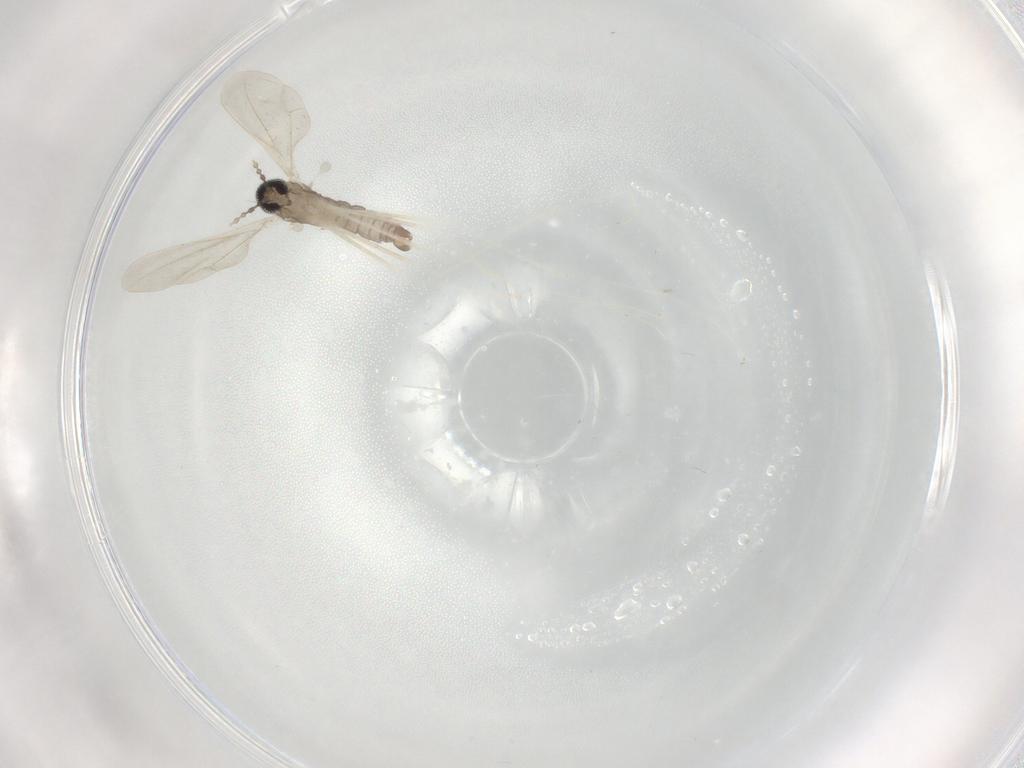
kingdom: Animalia
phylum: Arthropoda
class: Insecta
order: Diptera
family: Cecidomyiidae
